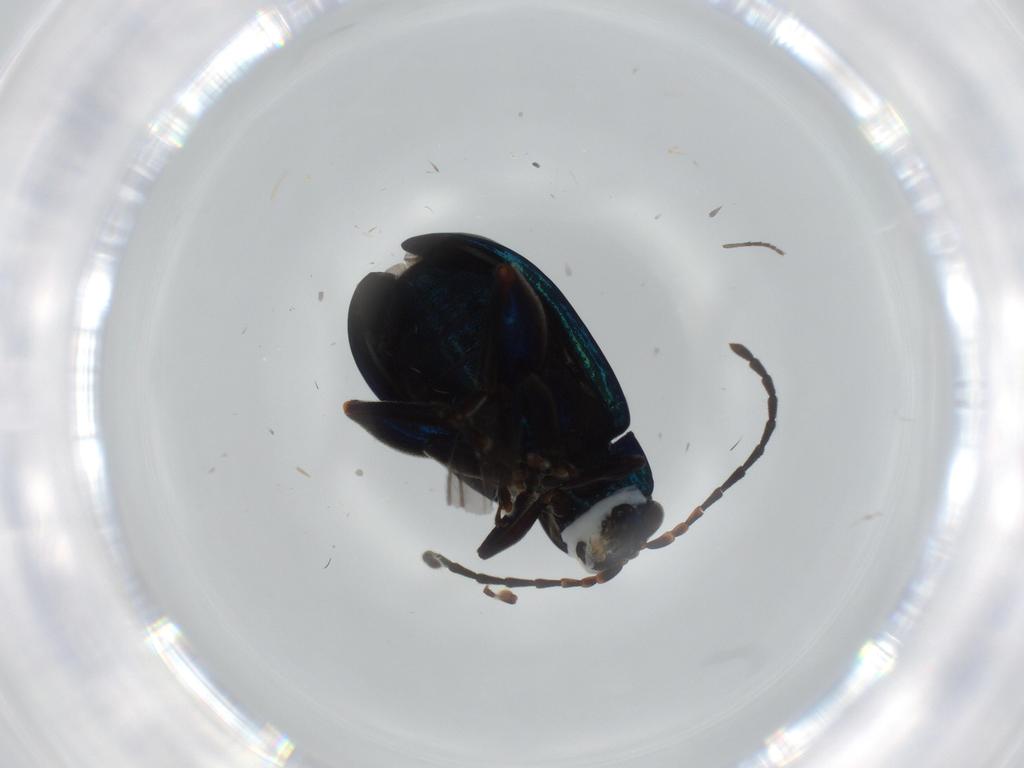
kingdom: Animalia
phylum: Arthropoda
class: Insecta
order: Coleoptera
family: Chrysomelidae
